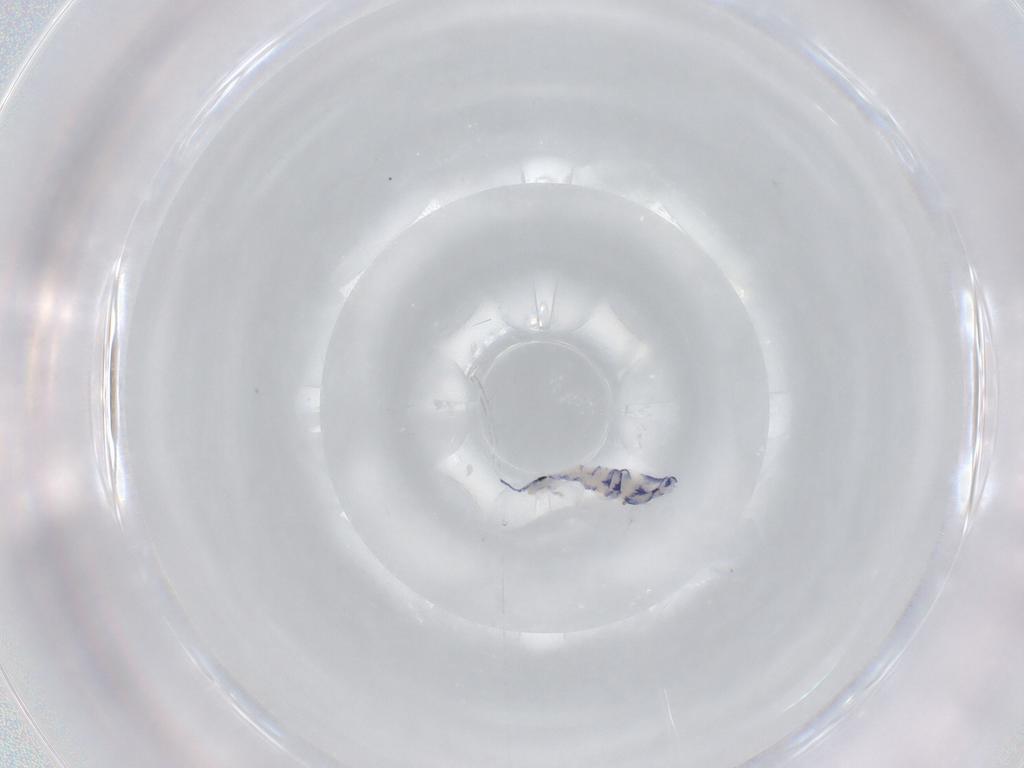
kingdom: Animalia
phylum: Arthropoda
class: Collembola
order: Entomobryomorpha
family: Entomobryidae
